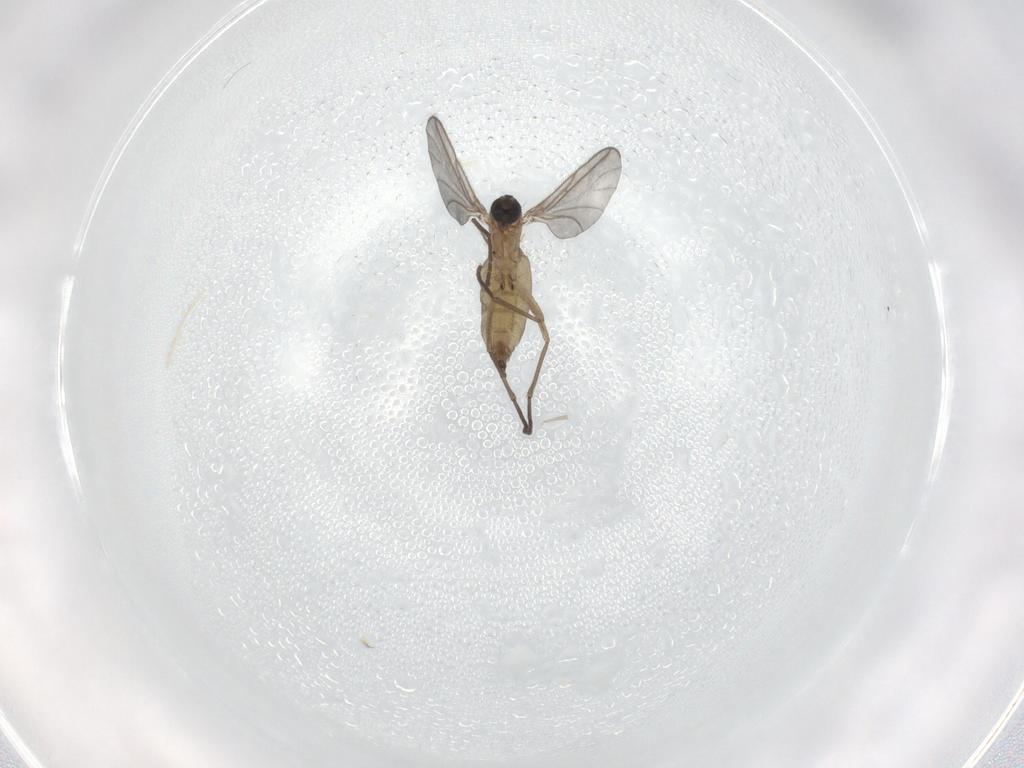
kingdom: Animalia
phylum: Arthropoda
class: Insecta
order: Diptera
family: Sciaridae
